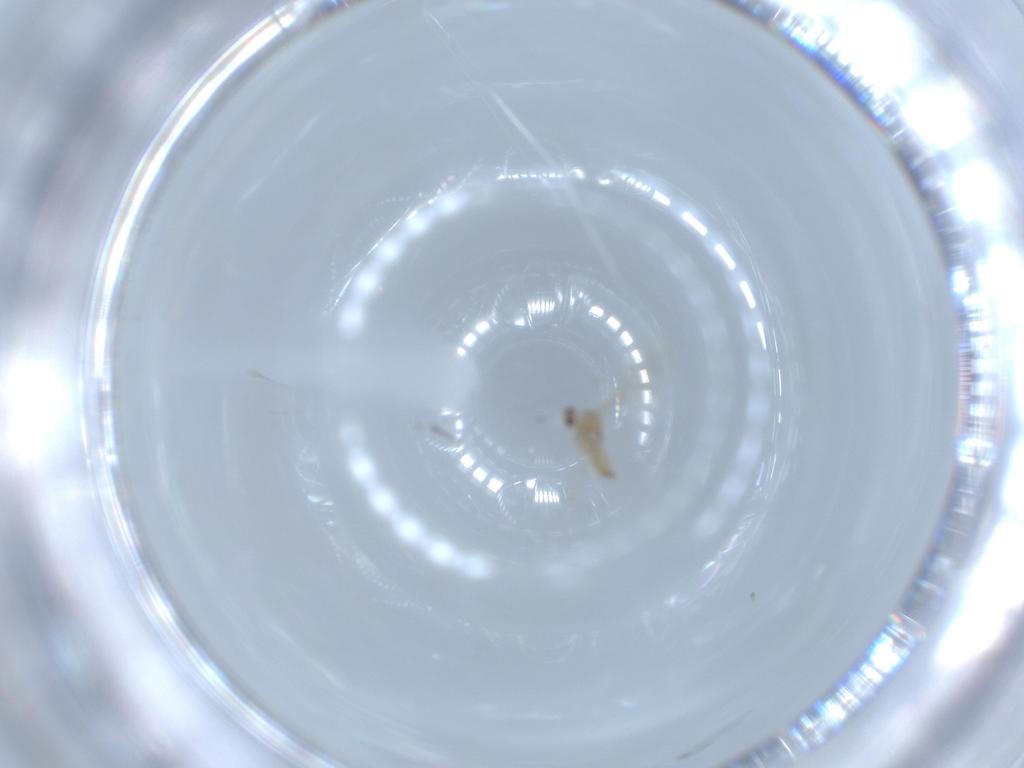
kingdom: Animalia
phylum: Arthropoda
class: Insecta
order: Diptera
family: Cecidomyiidae
